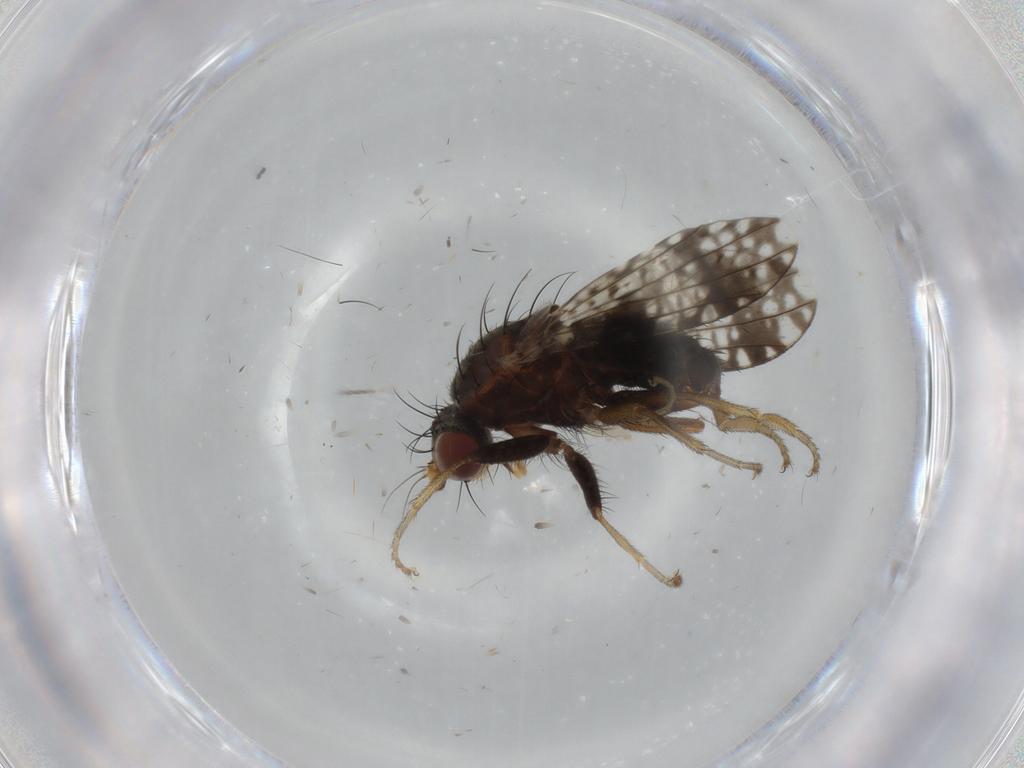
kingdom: Animalia
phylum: Arthropoda
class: Insecta
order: Diptera
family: Tephritidae
